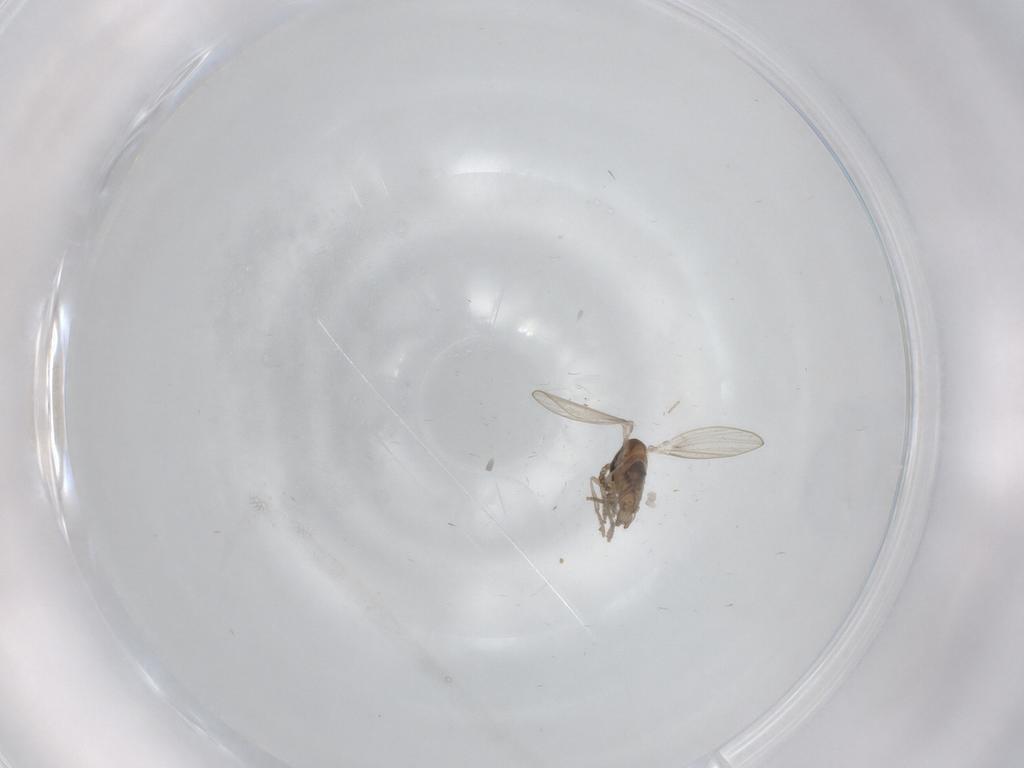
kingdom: Animalia
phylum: Arthropoda
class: Insecta
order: Diptera
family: Psychodidae
